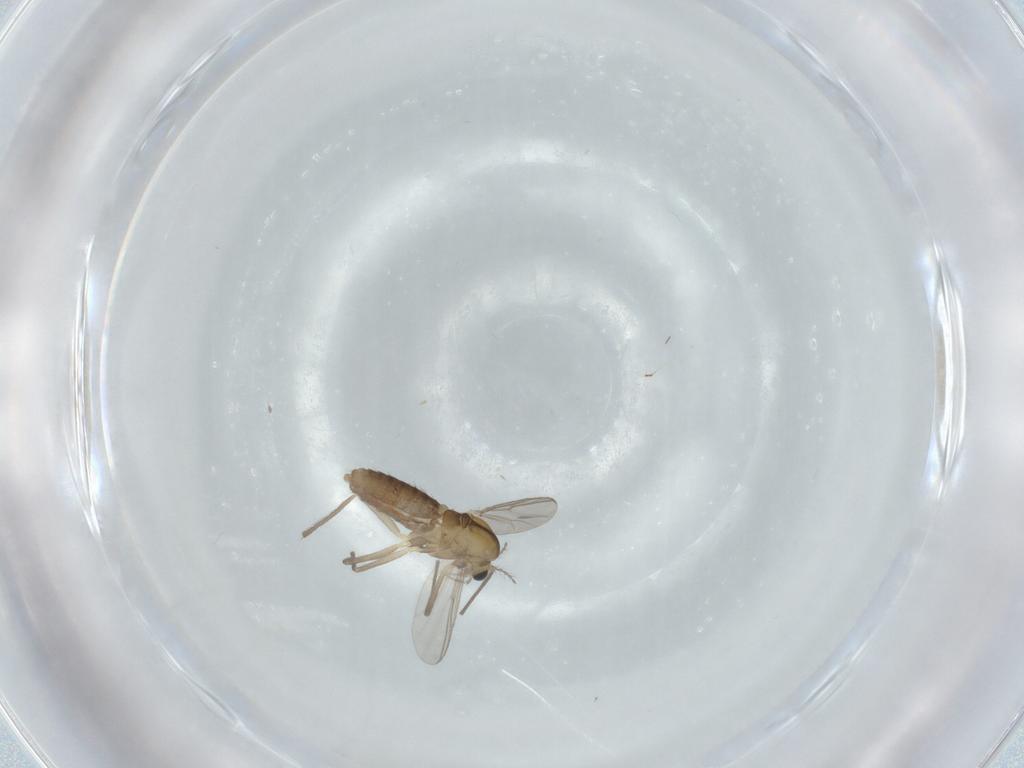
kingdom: Animalia
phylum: Arthropoda
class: Insecta
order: Diptera
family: Chironomidae
